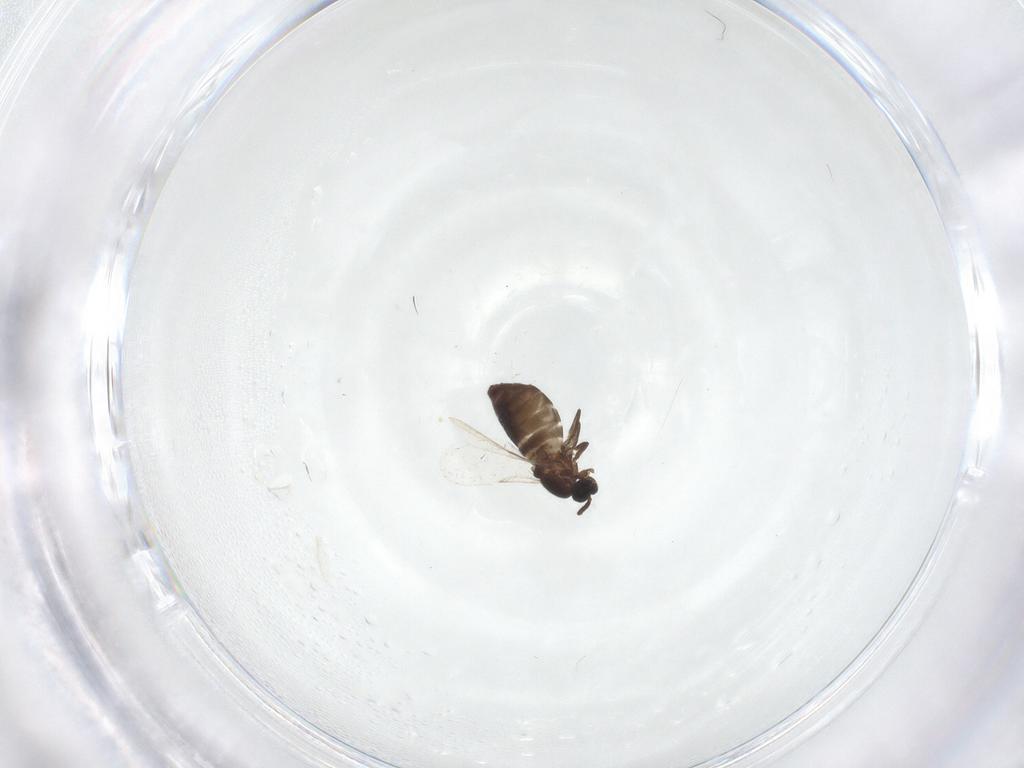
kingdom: Animalia
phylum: Arthropoda
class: Insecta
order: Diptera
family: Scatopsidae
